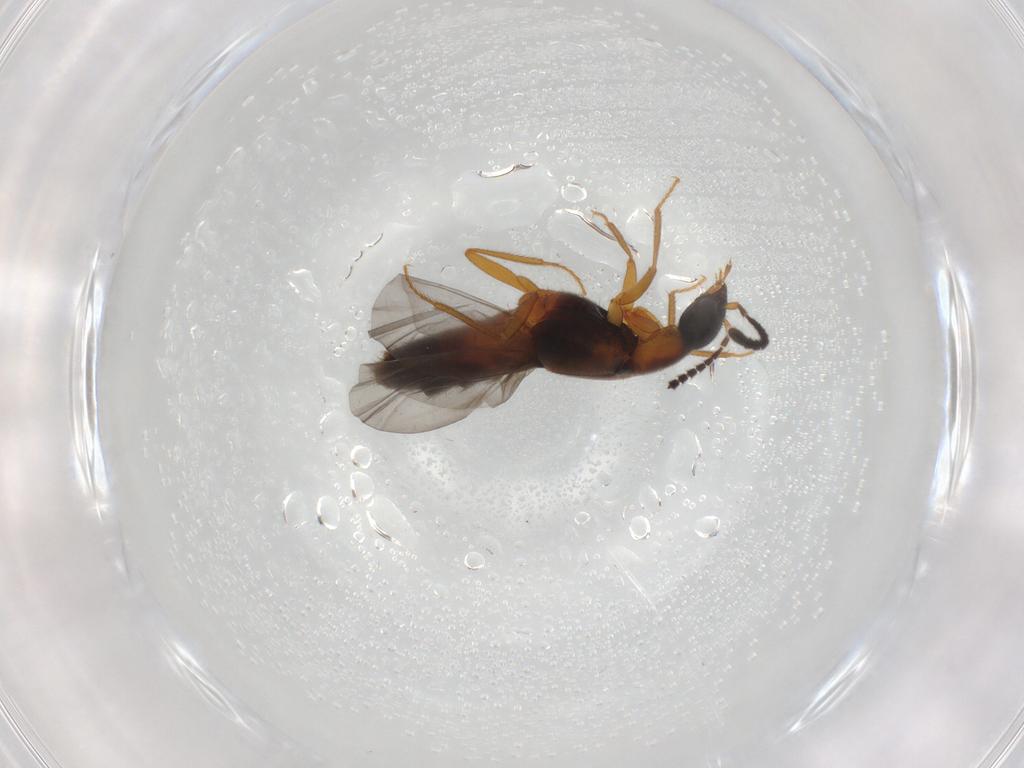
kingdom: Animalia
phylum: Arthropoda
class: Insecta
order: Coleoptera
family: Staphylinidae
